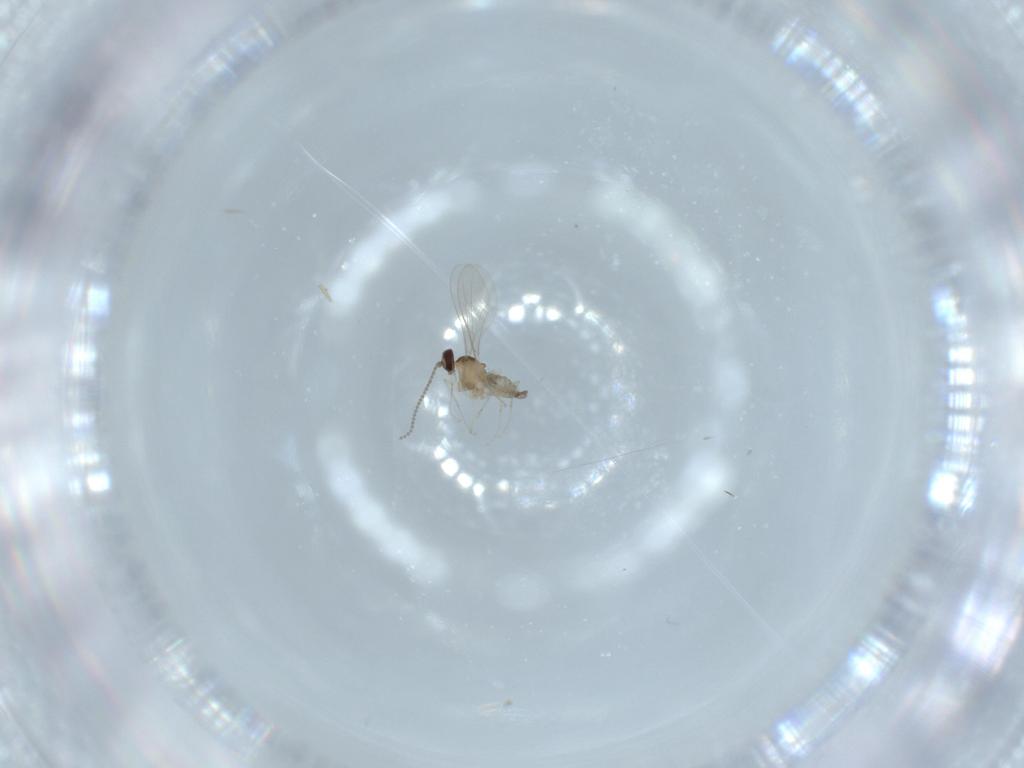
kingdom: Animalia
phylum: Arthropoda
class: Insecta
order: Diptera
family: Cecidomyiidae
